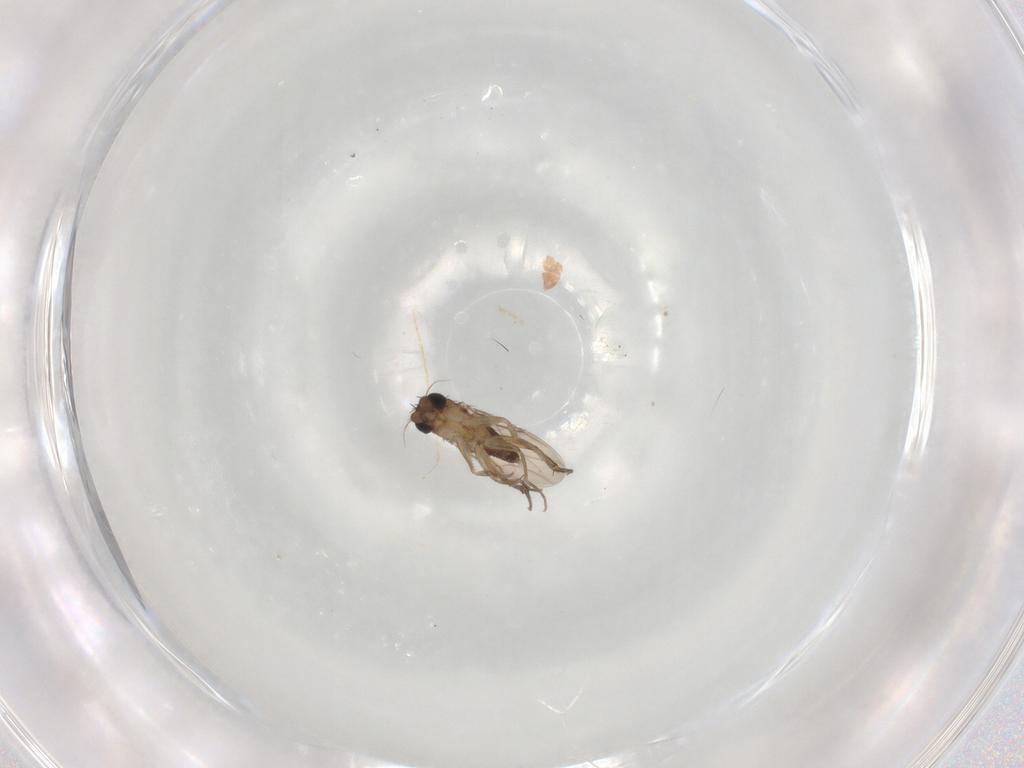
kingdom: Animalia
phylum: Arthropoda
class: Insecta
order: Diptera
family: Phoridae
